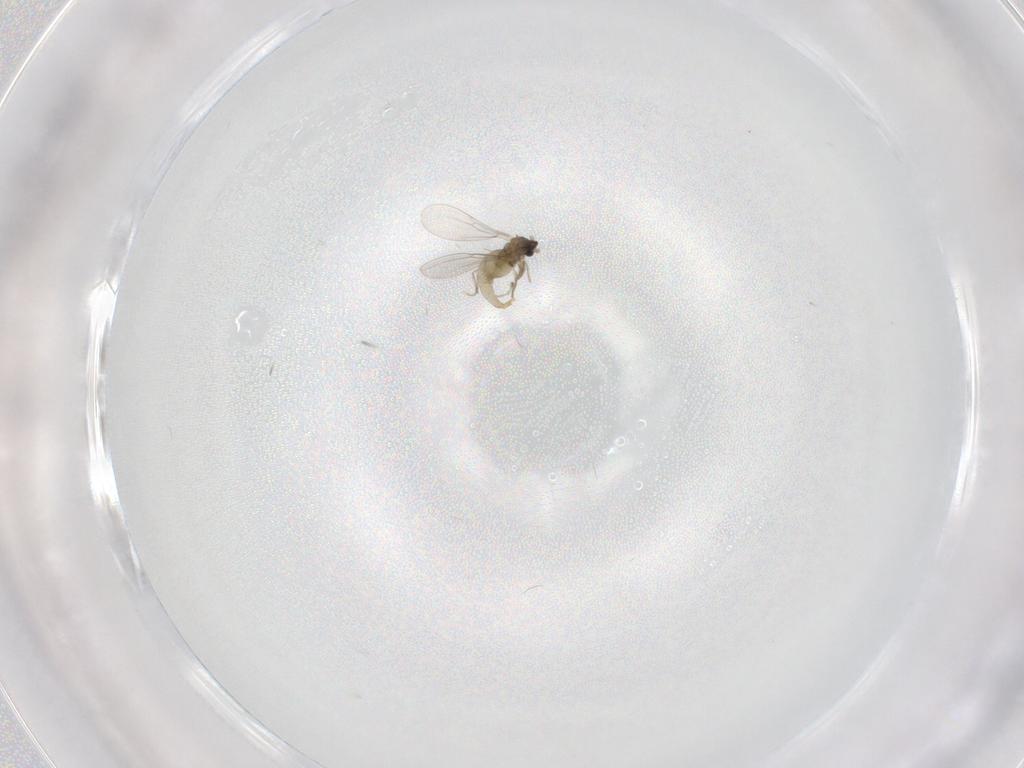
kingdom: Animalia
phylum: Arthropoda
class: Insecta
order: Diptera
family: Cecidomyiidae
